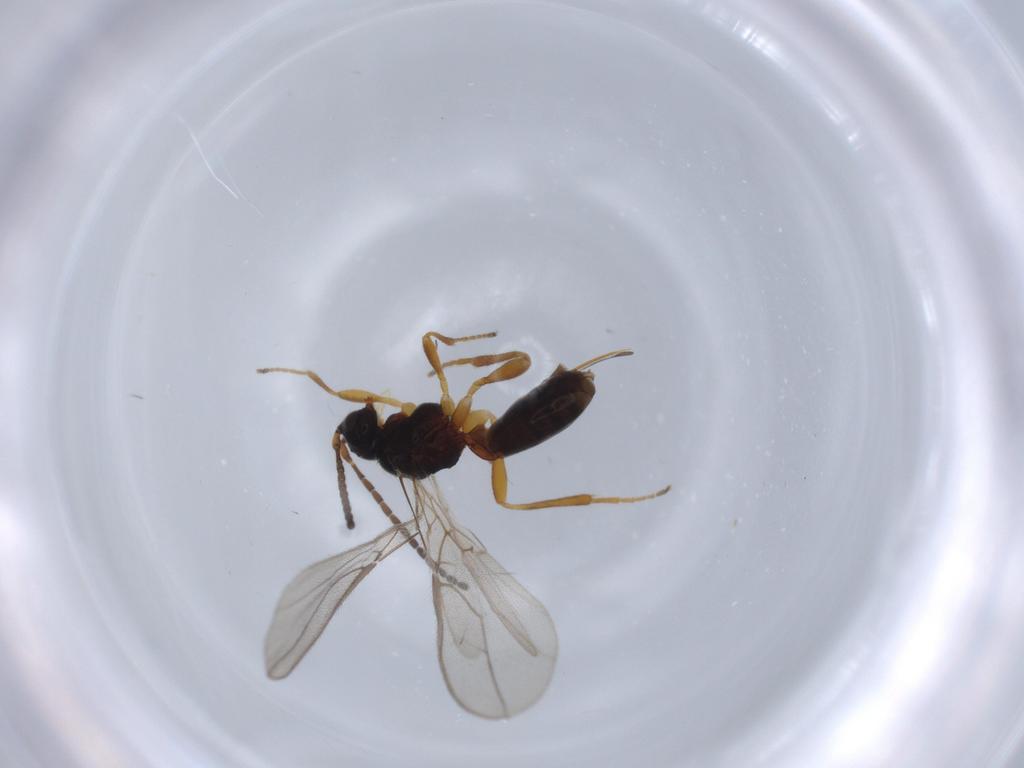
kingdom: Animalia
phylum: Arthropoda
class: Insecta
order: Hymenoptera
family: Braconidae
